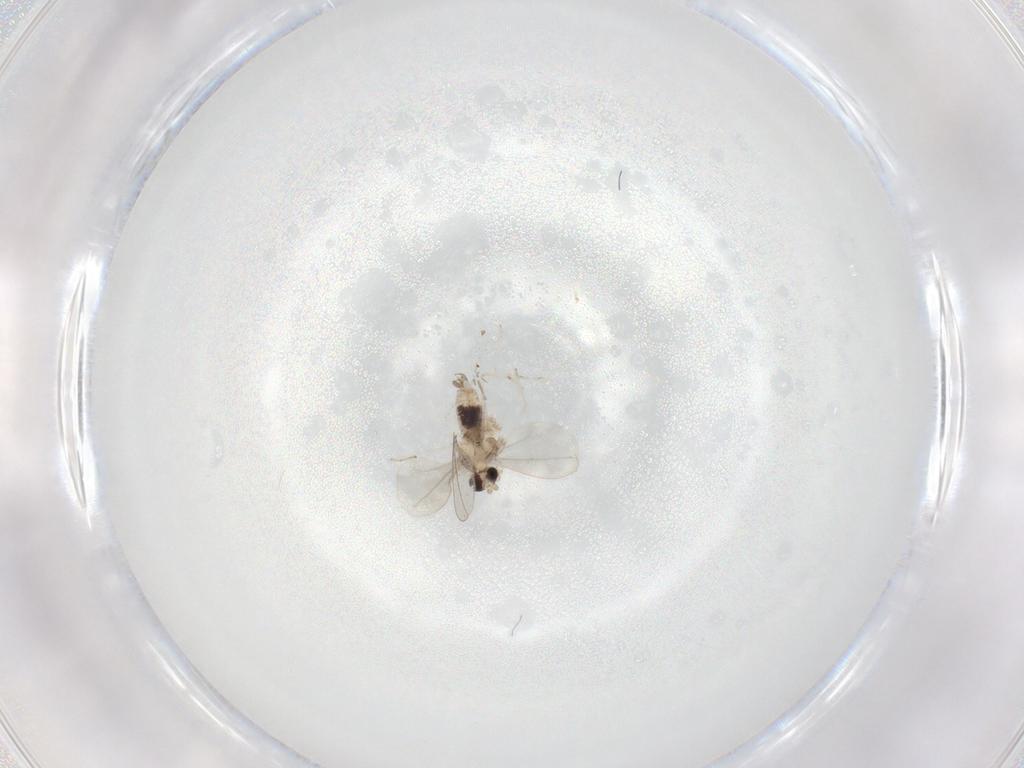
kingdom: Animalia
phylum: Arthropoda
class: Insecta
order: Diptera
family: Cecidomyiidae
